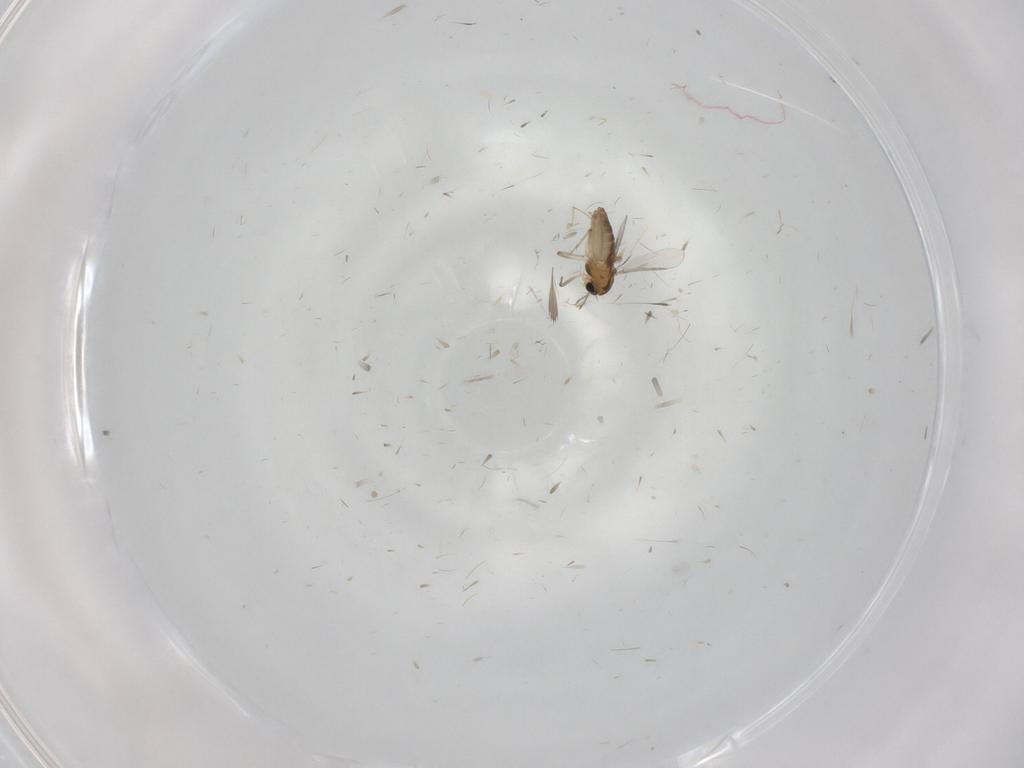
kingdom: Animalia
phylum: Arthropoda
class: Insecta
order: Diptera
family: Chironomidae
